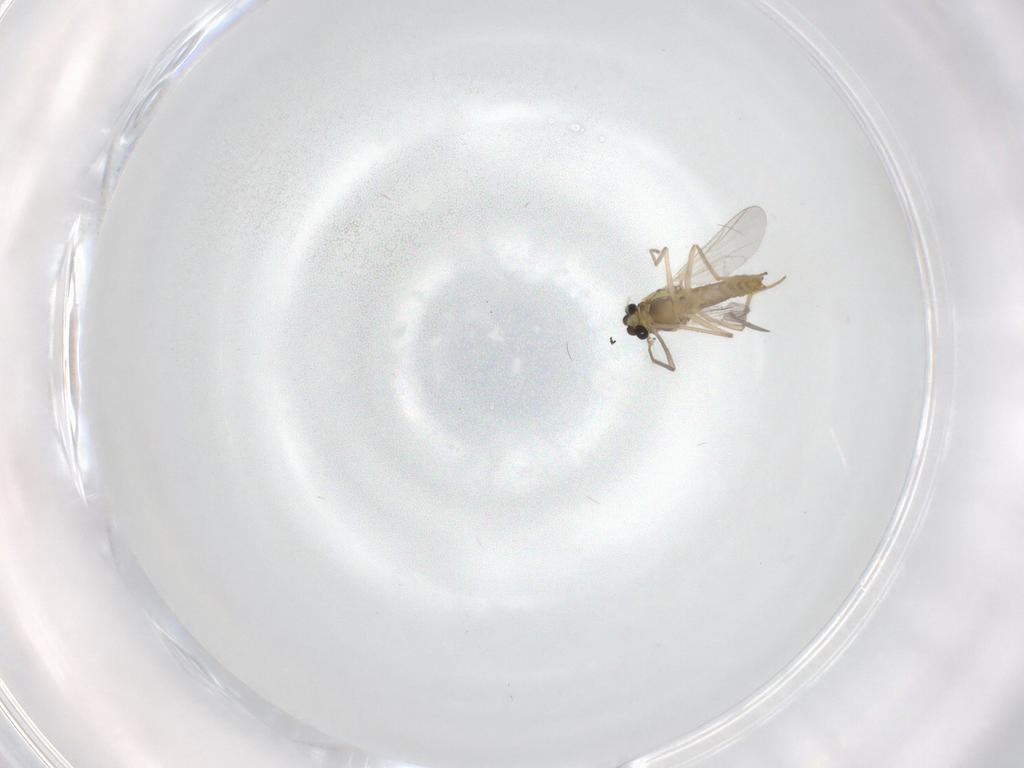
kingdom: Animalia
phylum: Arthropoda
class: Insecta
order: Diptera
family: Chironomidae
